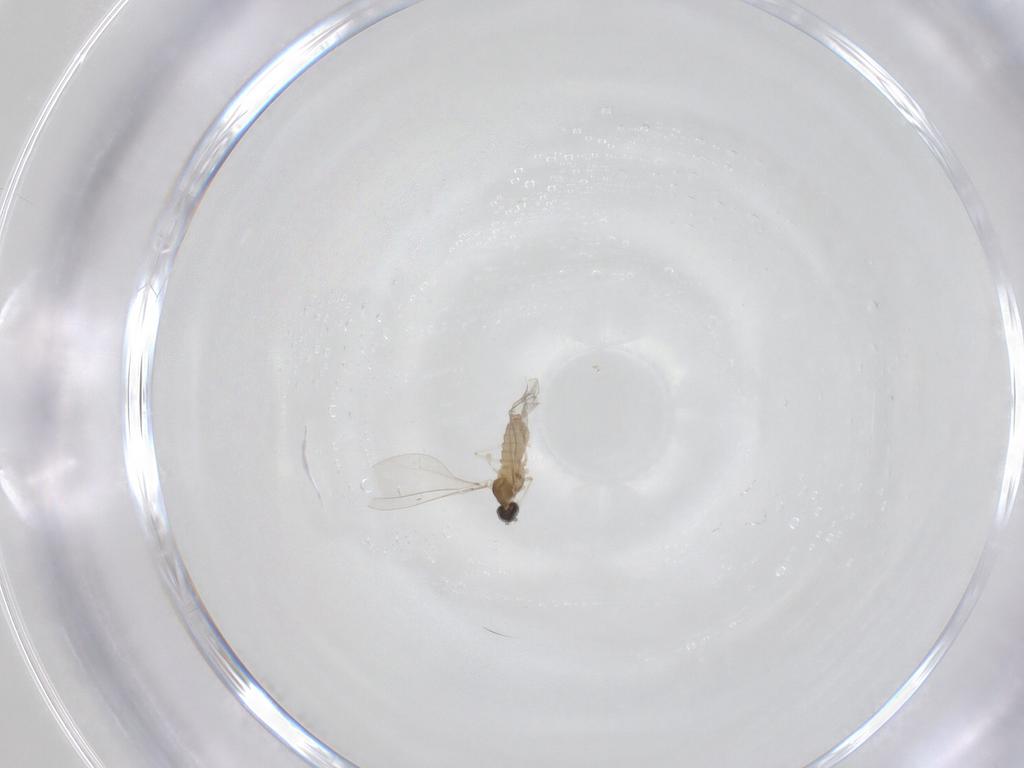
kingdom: Animalia
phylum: Arthropoda
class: Insecta
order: Diptera
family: Cecidomyiidae
